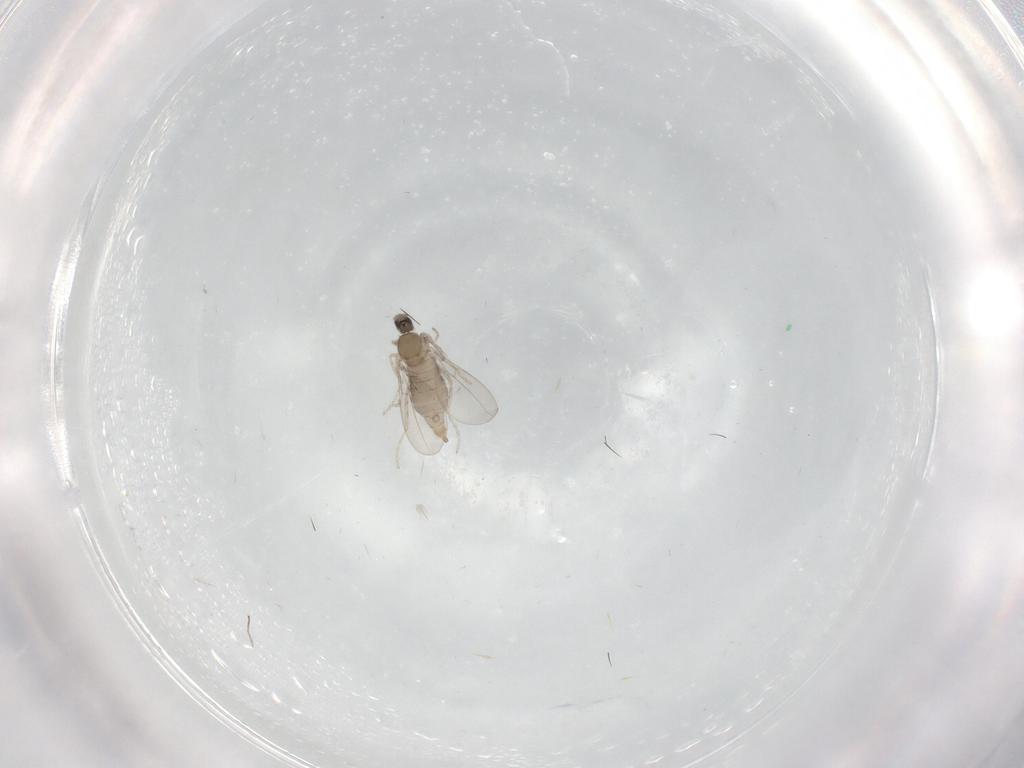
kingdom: Animalia
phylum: Arthropoda
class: Insecta
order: Diptera
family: Cecidomyiidae
